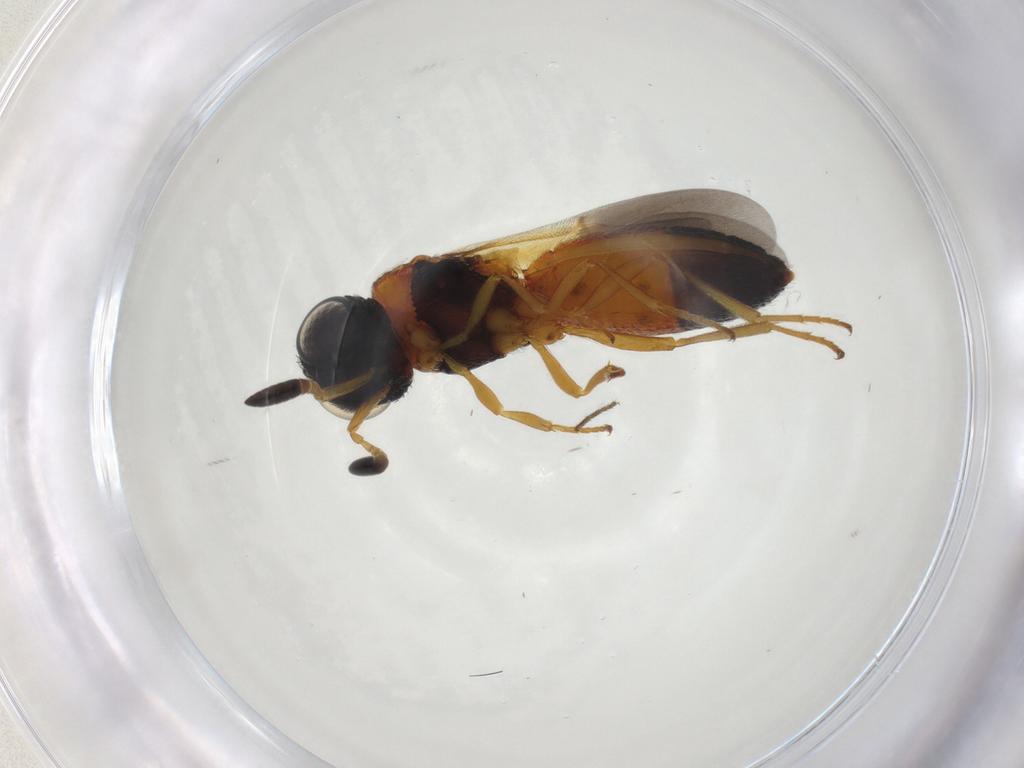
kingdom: Animalia
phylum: Arthropoda
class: Insecta
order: Hymenoptera
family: Scelionidae
